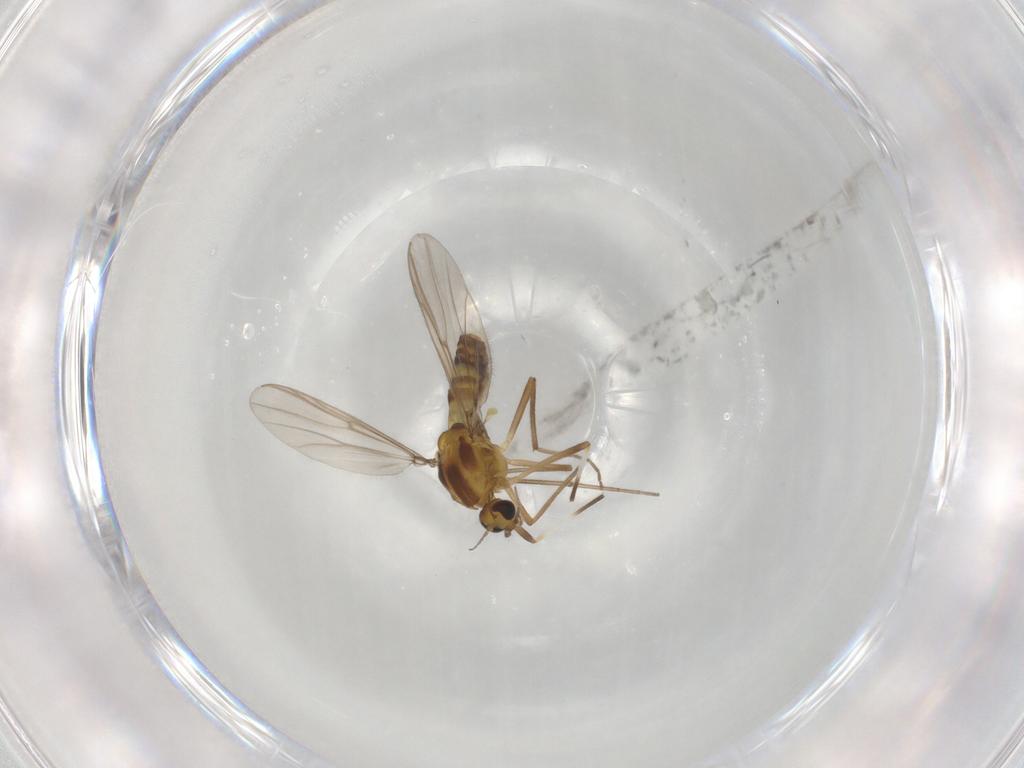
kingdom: Animalia
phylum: Arthropoda
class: Insecta
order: Diptera
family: Chironomidae
